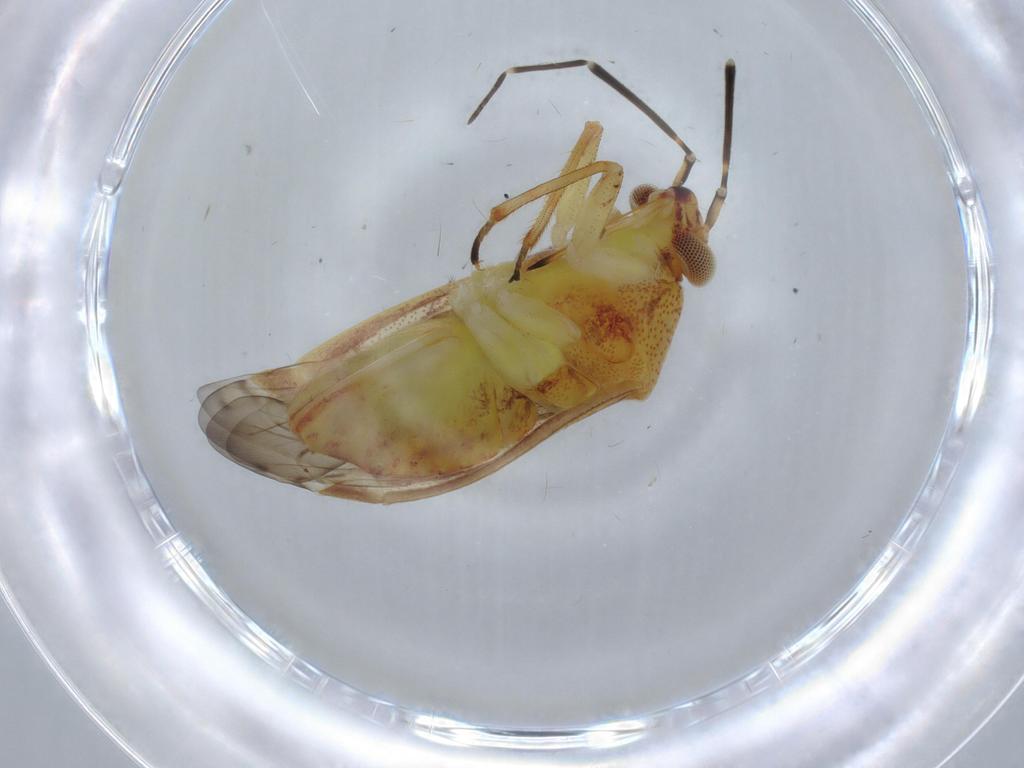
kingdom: Animalia
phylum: Arthropoda
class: Insecta
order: Hemiptera
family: Miridae
